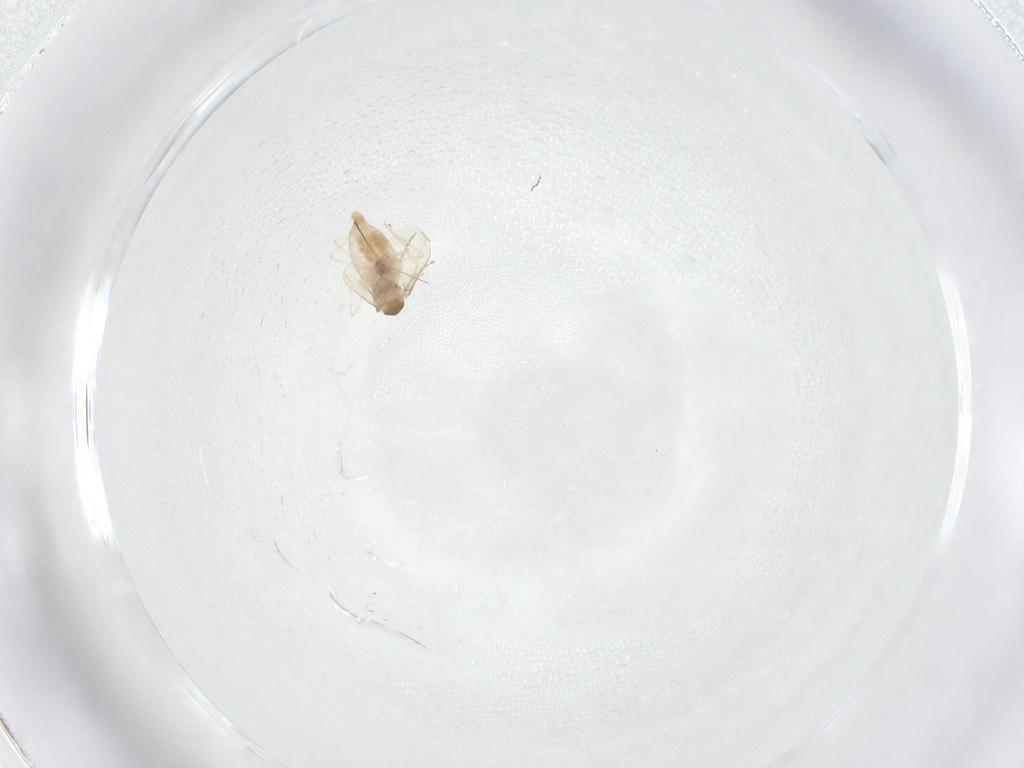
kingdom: Animalia
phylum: Arthropoda
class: Insecta
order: Diptera
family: Cecidomyiidae
